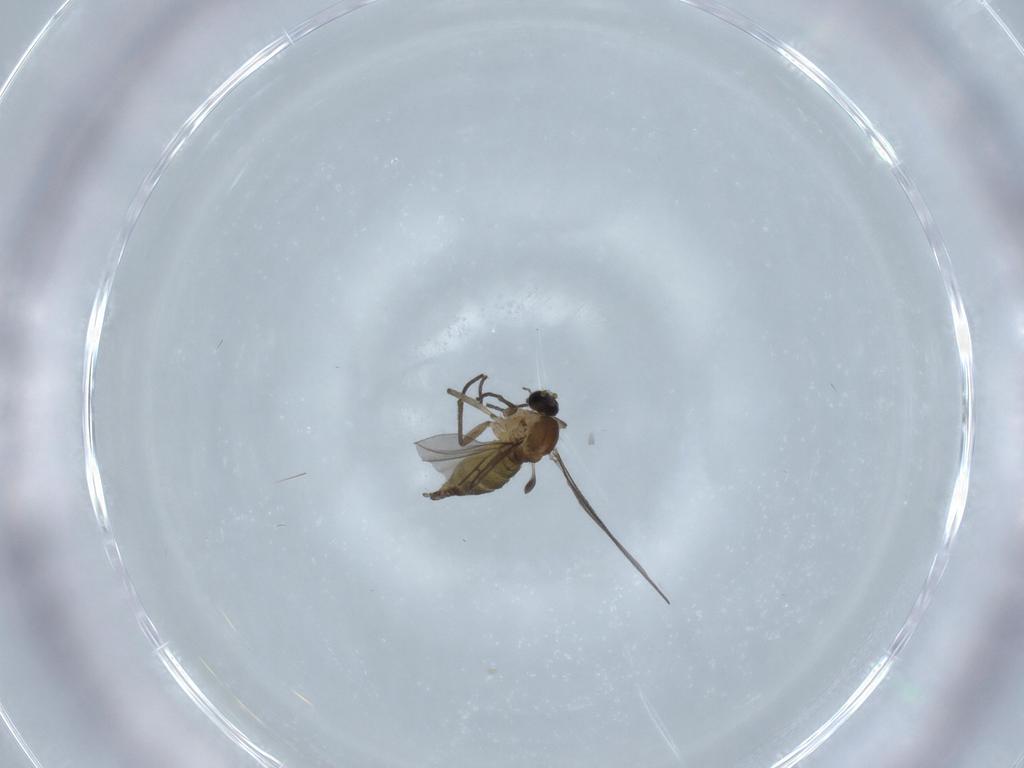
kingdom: Animalia
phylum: Arthropoda
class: Insecta
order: Diptera
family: Sciaridae
